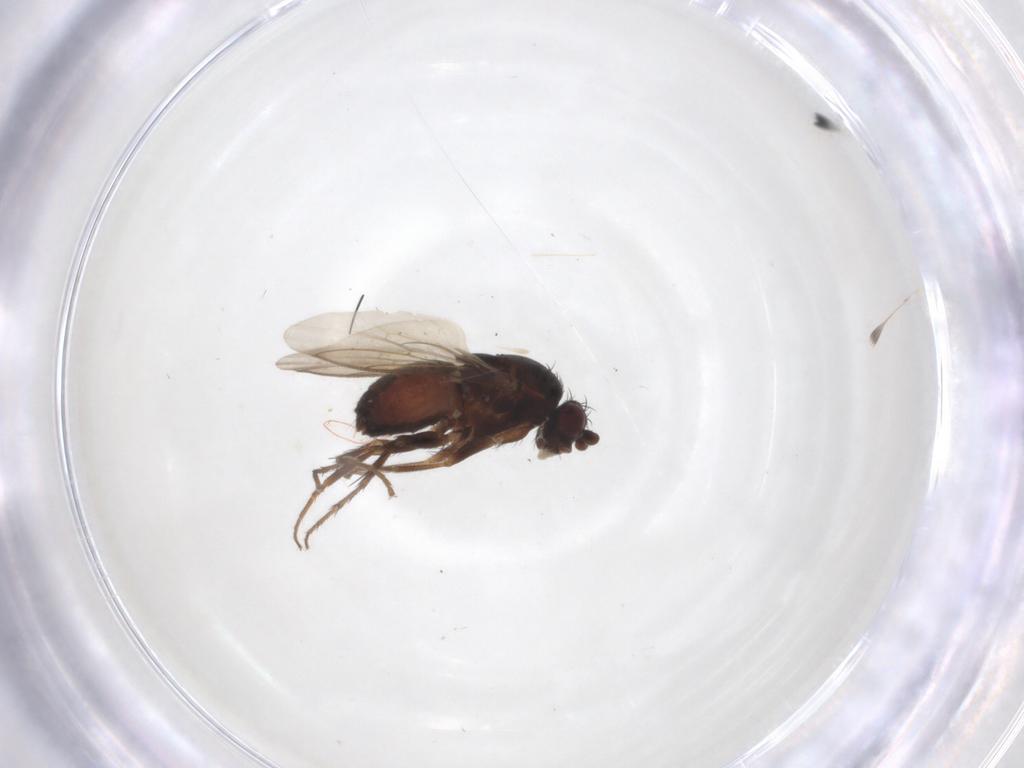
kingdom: Animalia
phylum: Arthropoda
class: Insecta
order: Diptera
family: Sphaeroceridae
